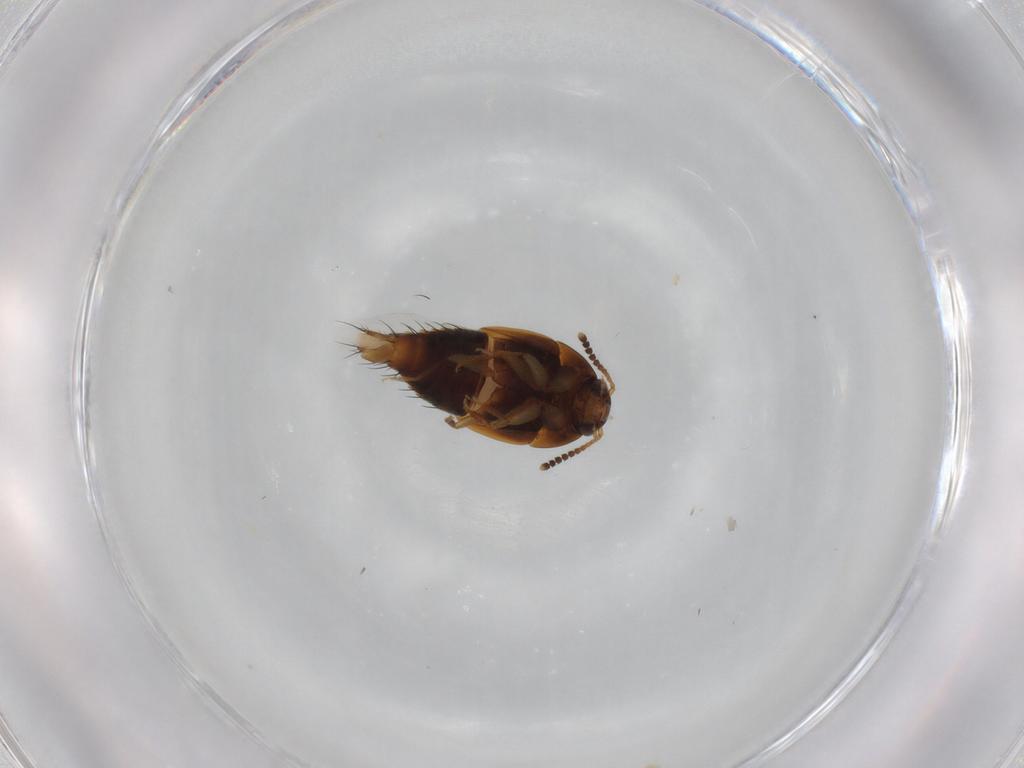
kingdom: Animalia
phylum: Arthropoda
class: Insecta
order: Coleoptera
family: Staphylinidae
